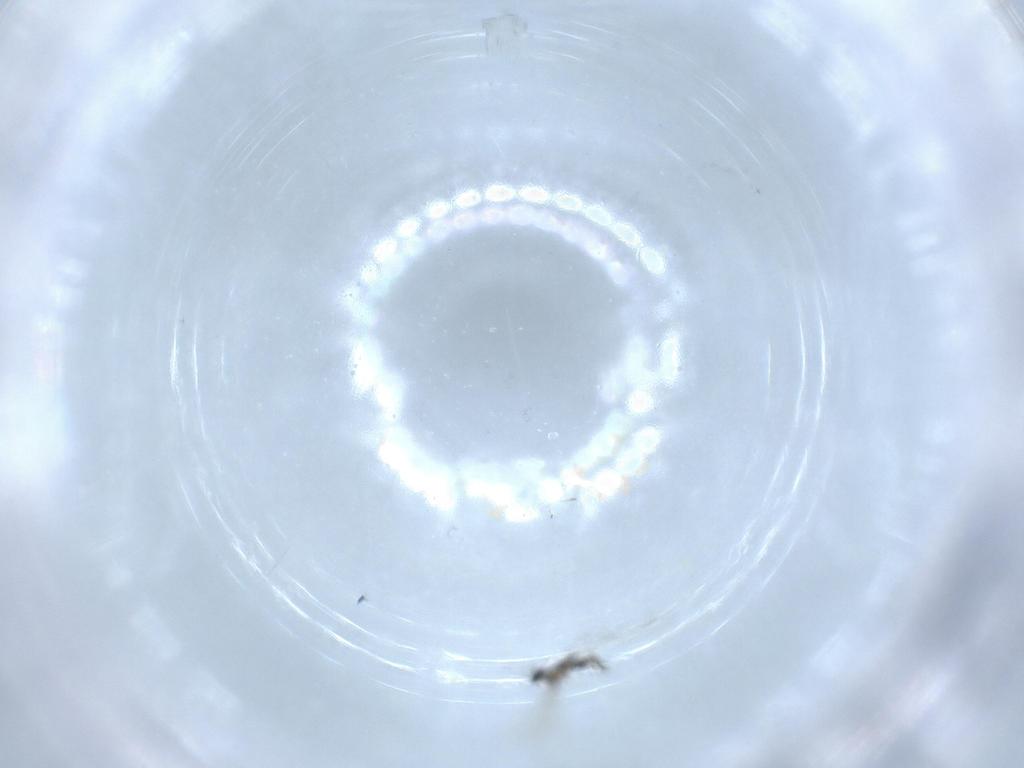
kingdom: Animalia
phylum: Arthropoda
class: Insecta
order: Diptera
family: Cecidomyiidae
